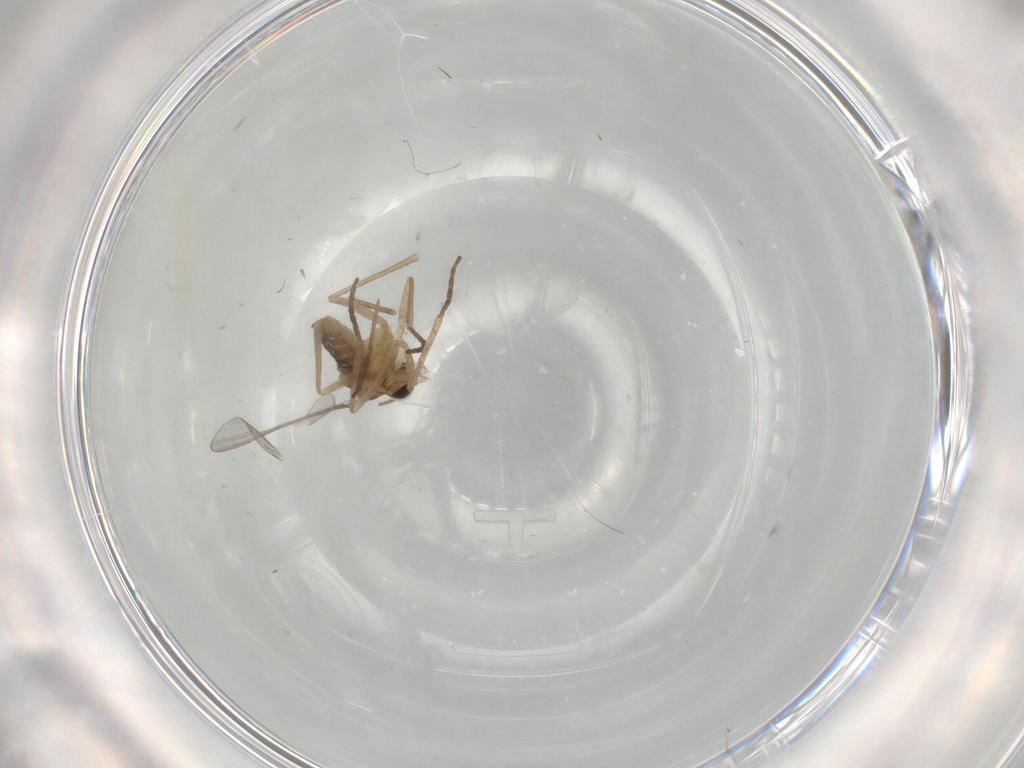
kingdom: Animalia
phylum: Arthropoda
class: Insecta
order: Diptera
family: Cecidomyiidae
